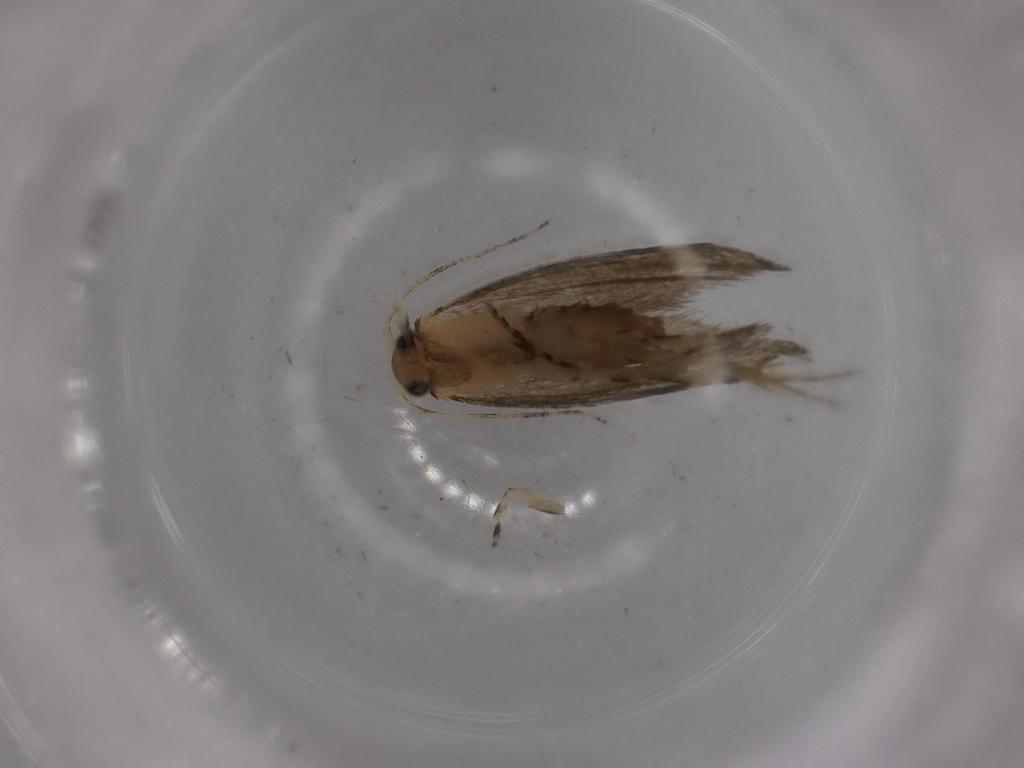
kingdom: Animalia
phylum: Arthropoda
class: Insecta
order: Lepidoptera
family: Tineidae
